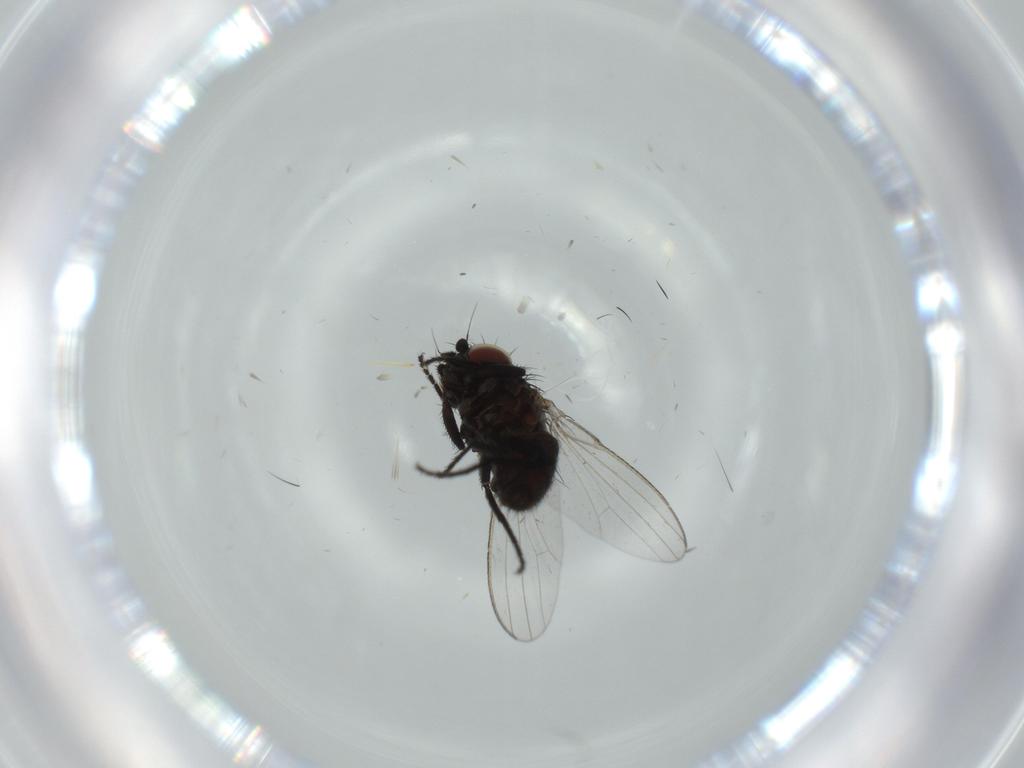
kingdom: Animalia
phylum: Arthropoda
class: Insecta
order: Diptera
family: Milichiidae
